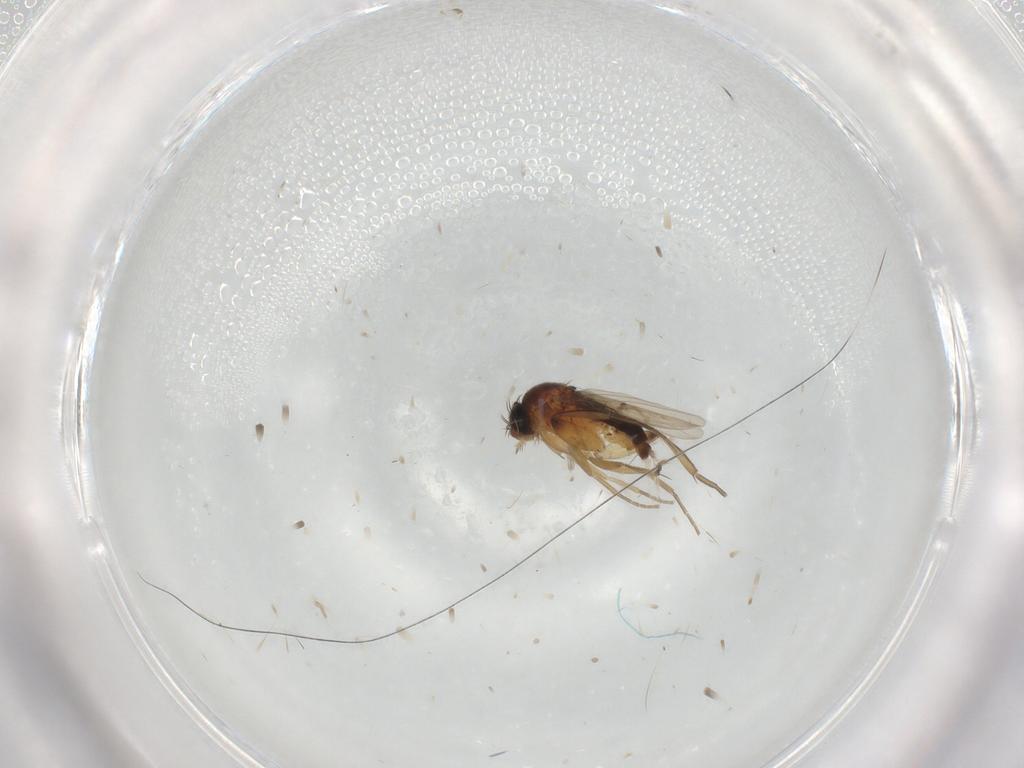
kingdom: Animalia
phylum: Arthropoda
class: Insecta
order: Diptera
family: Phoridae
